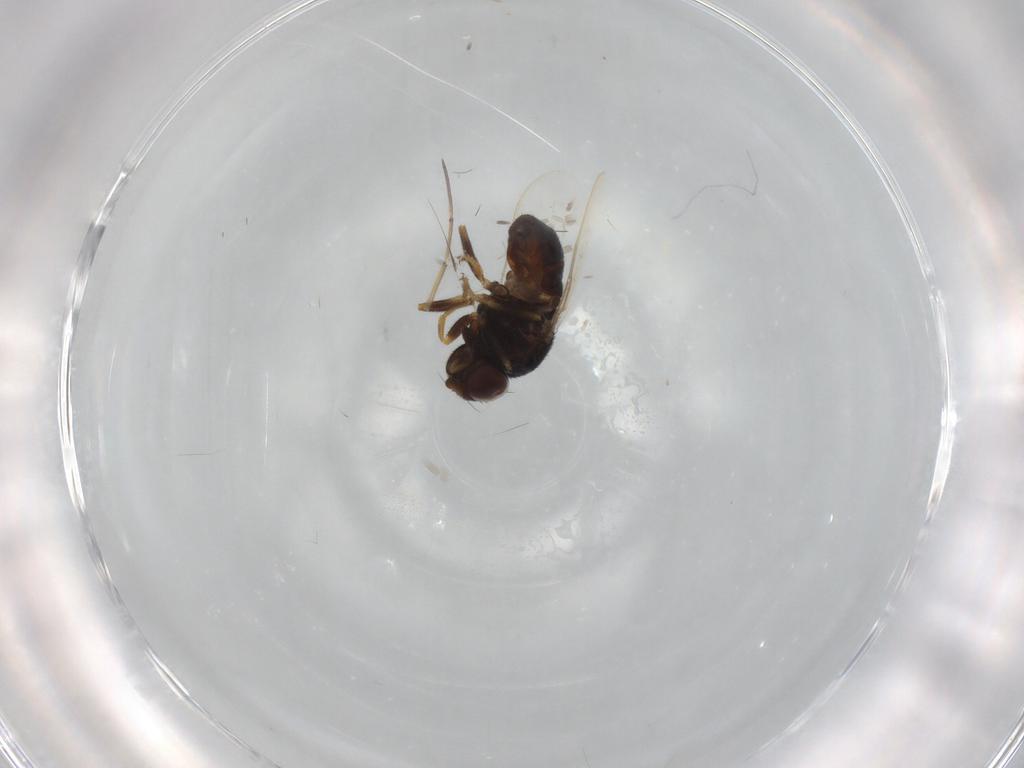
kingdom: Animalia
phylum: Arthropoda
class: Insecta
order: Diptera
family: Chloropidae
